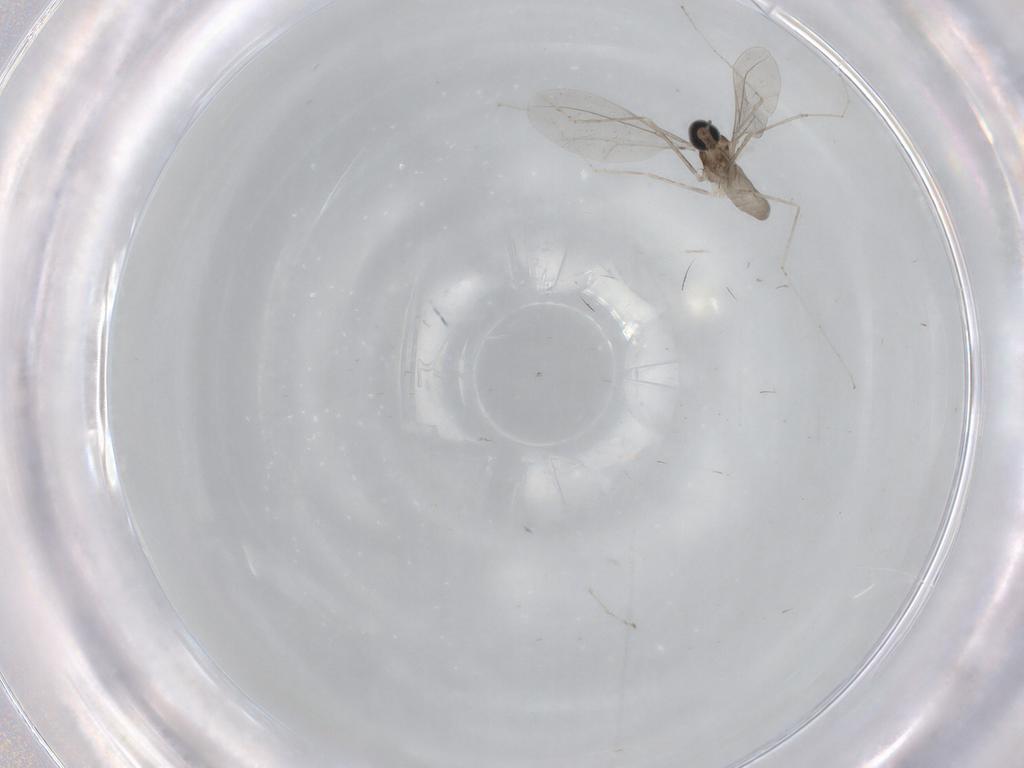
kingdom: Animalia
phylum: Arthropoda
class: Insecta
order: Diptera
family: Cecidomyiidae
